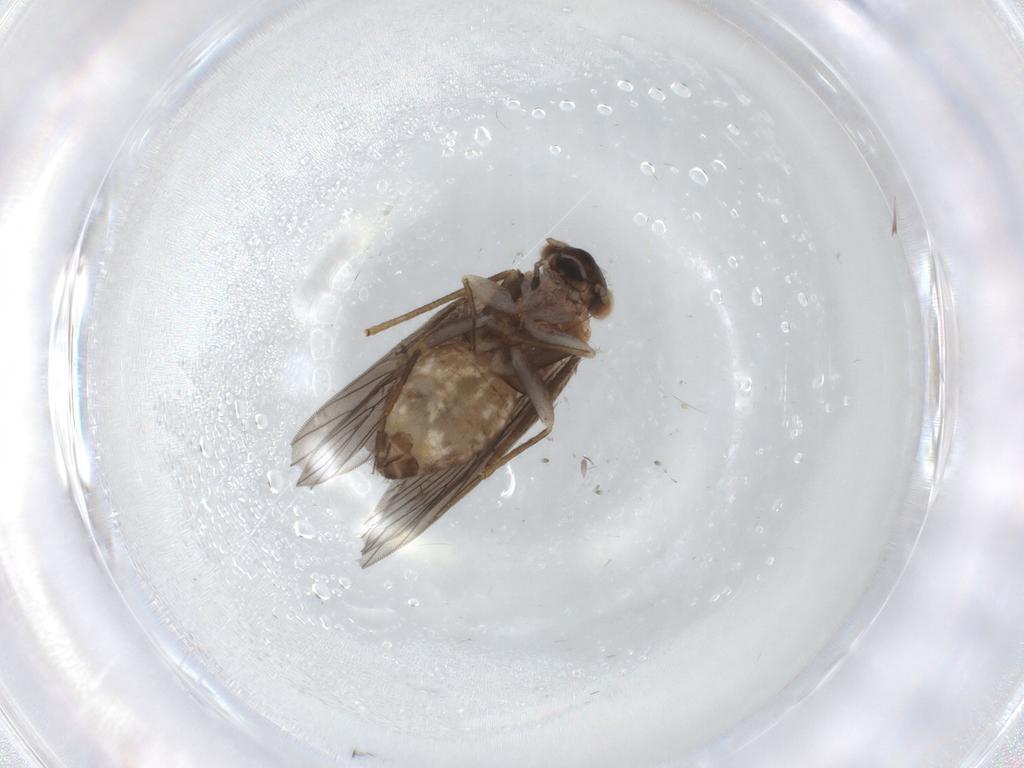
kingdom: Animalia
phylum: Arthropoda
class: Insecta
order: Psocodea
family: Lepidopsocidae
